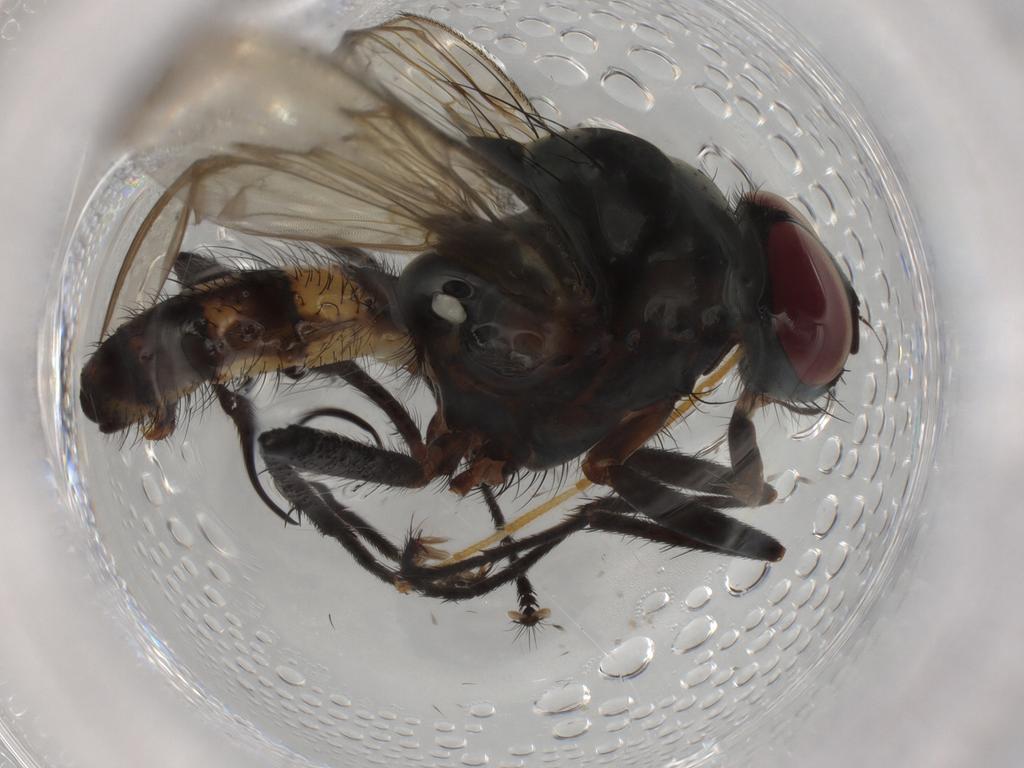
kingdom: Animalia
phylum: Arthropoda
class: Insecta
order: Diptera
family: Anthomyiidae
